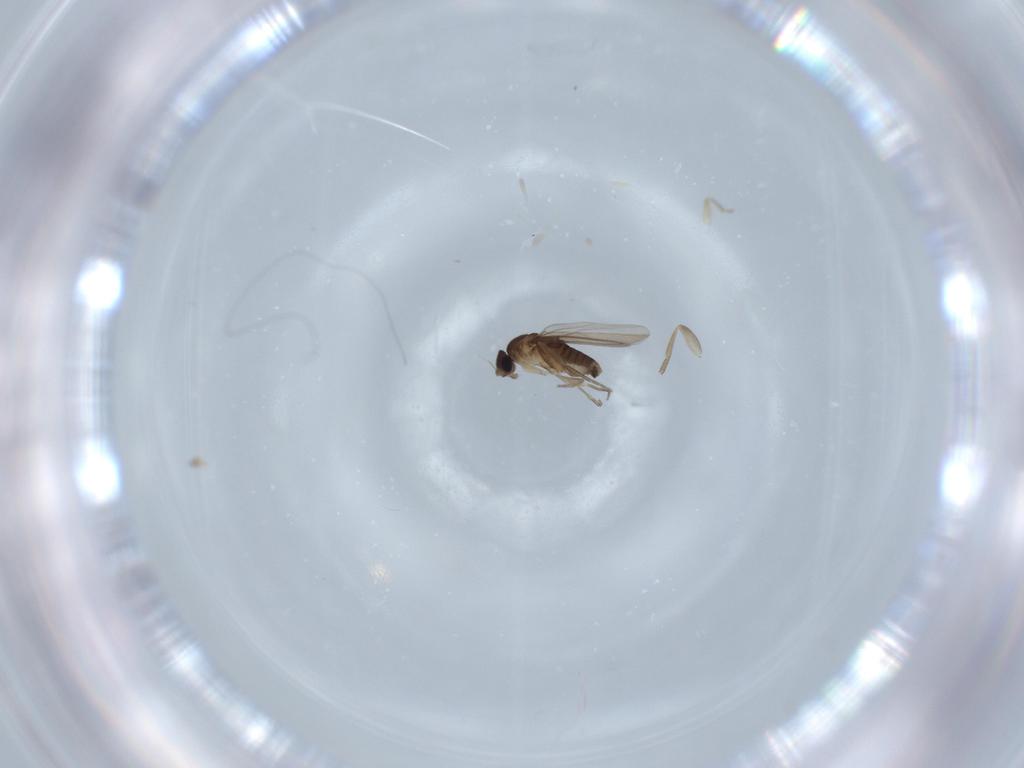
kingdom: Animalia
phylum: Arthropoda
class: Insecta
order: Diptera
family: Phoridae
